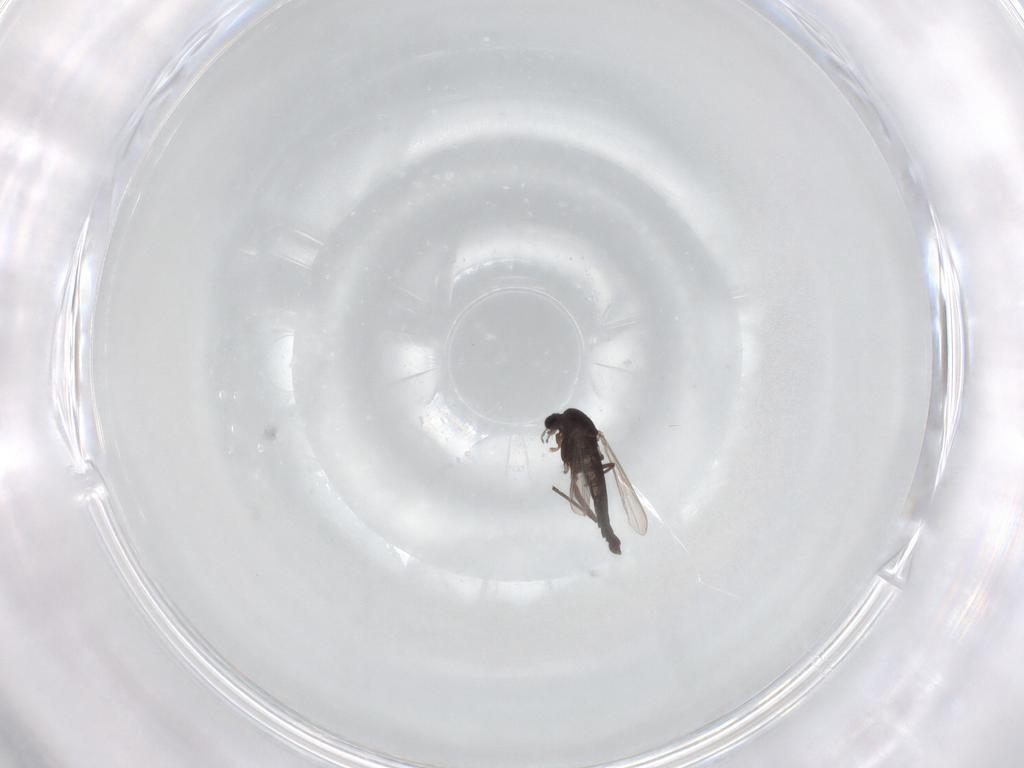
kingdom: Animalia
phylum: Arthropoda
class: Insecta
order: Diptera
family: Chironomidae
